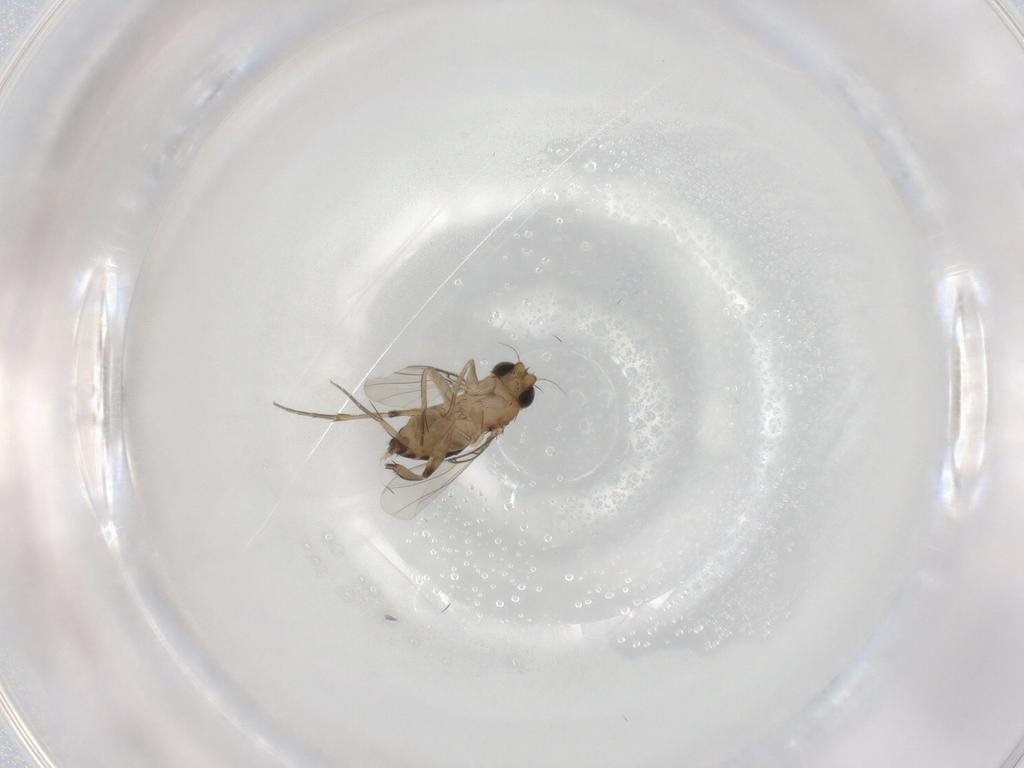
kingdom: Animalia
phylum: Arthropoda
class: Insecta
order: Diptera
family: Phoridae
